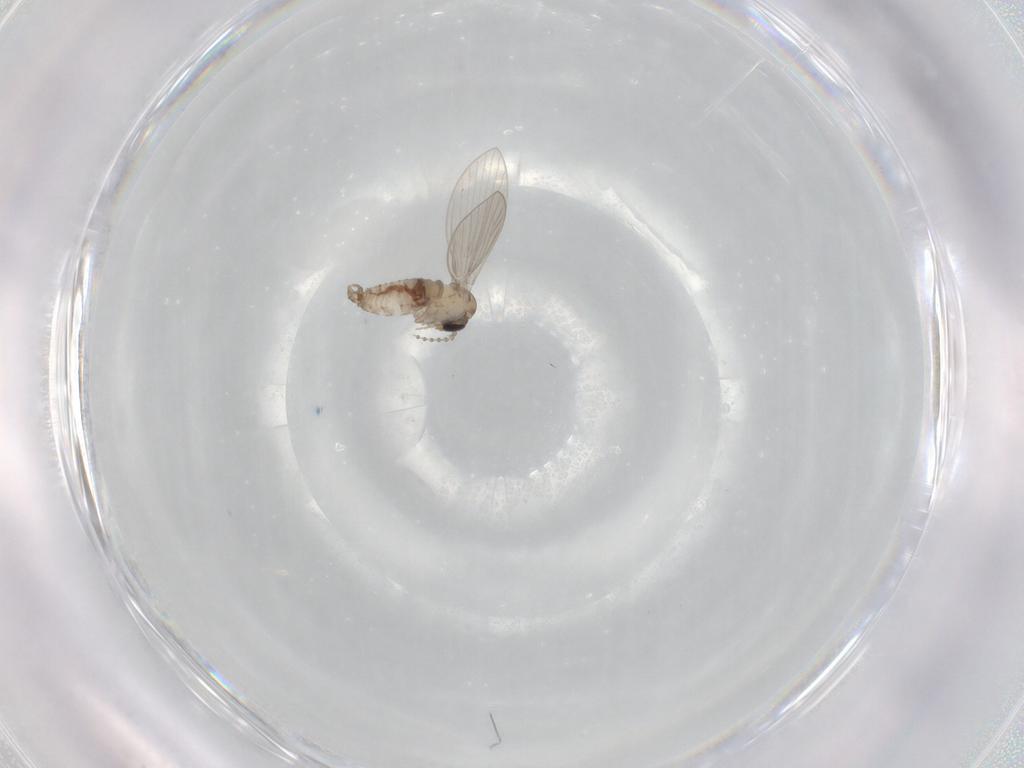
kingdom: Animalia
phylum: Arthropoda
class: Insecta
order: Diptera
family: Psychodidae
